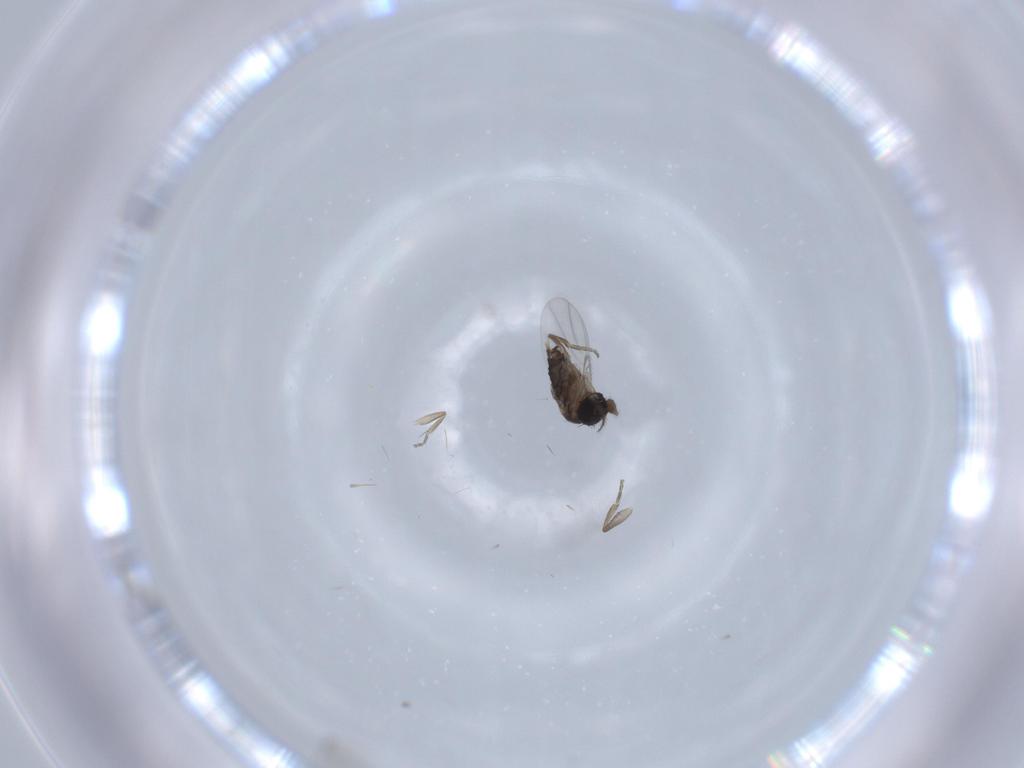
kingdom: Animalia
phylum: Arthropoda
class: Insecta
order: Diptera
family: Phoridae
